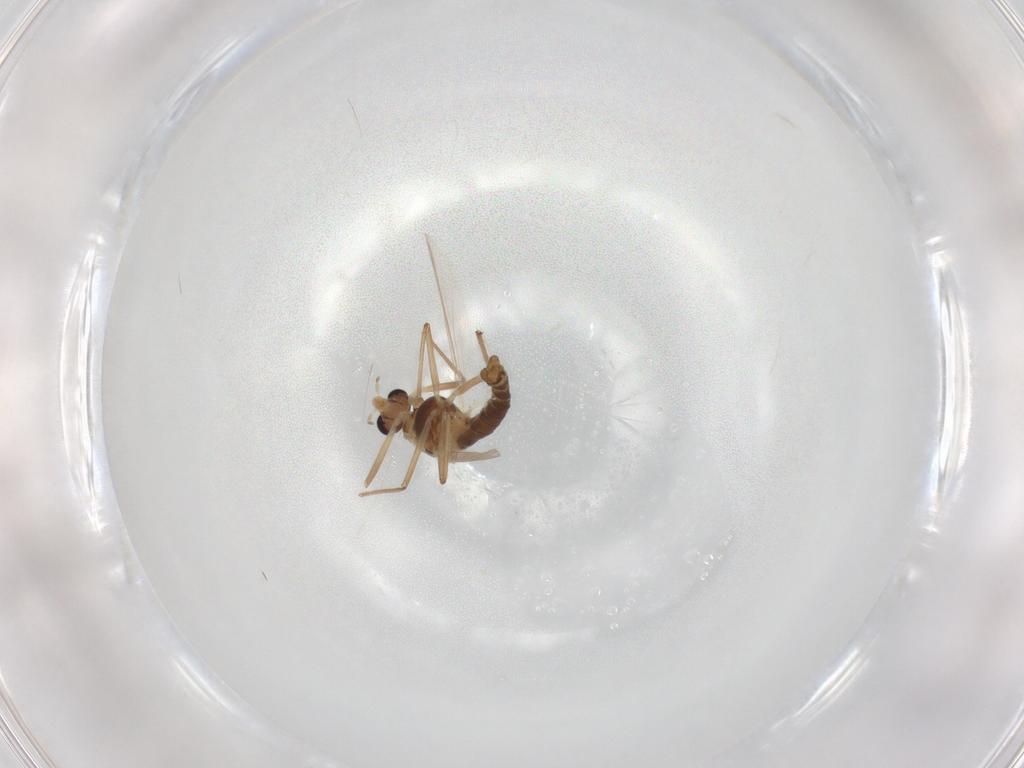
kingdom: Animalia
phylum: Arthropoda
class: Insecta
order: Diptera
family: Chironomidae
